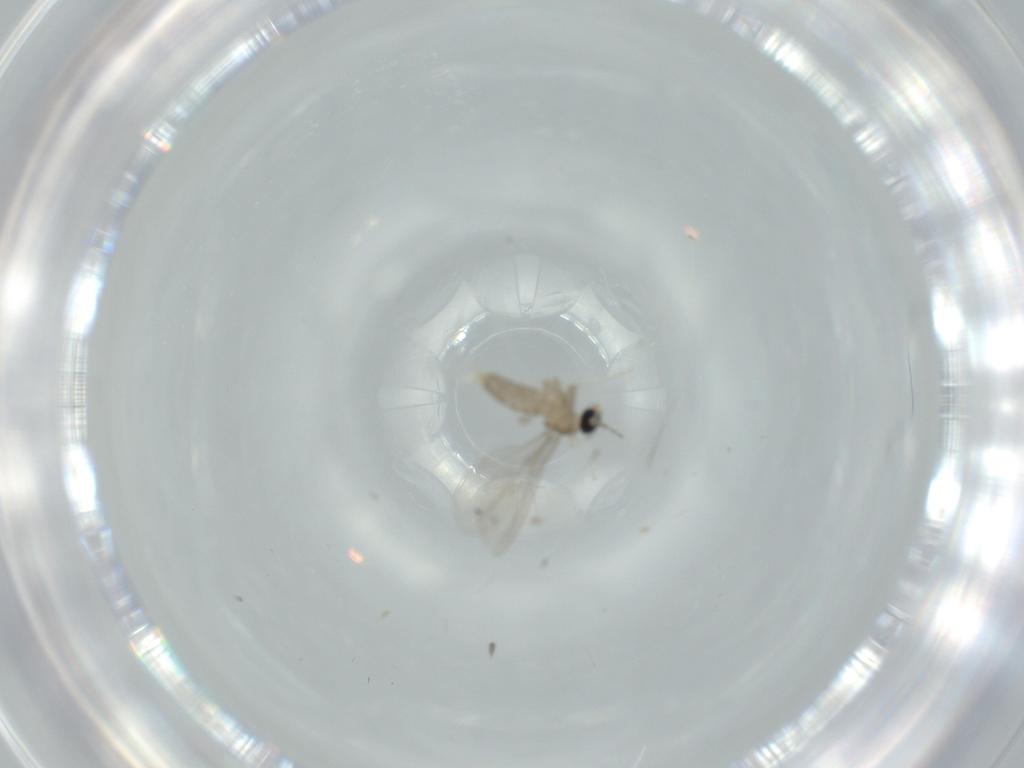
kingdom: Animalia
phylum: Arthropoda
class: Insecta
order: Diptera
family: Cecidomyiidae
